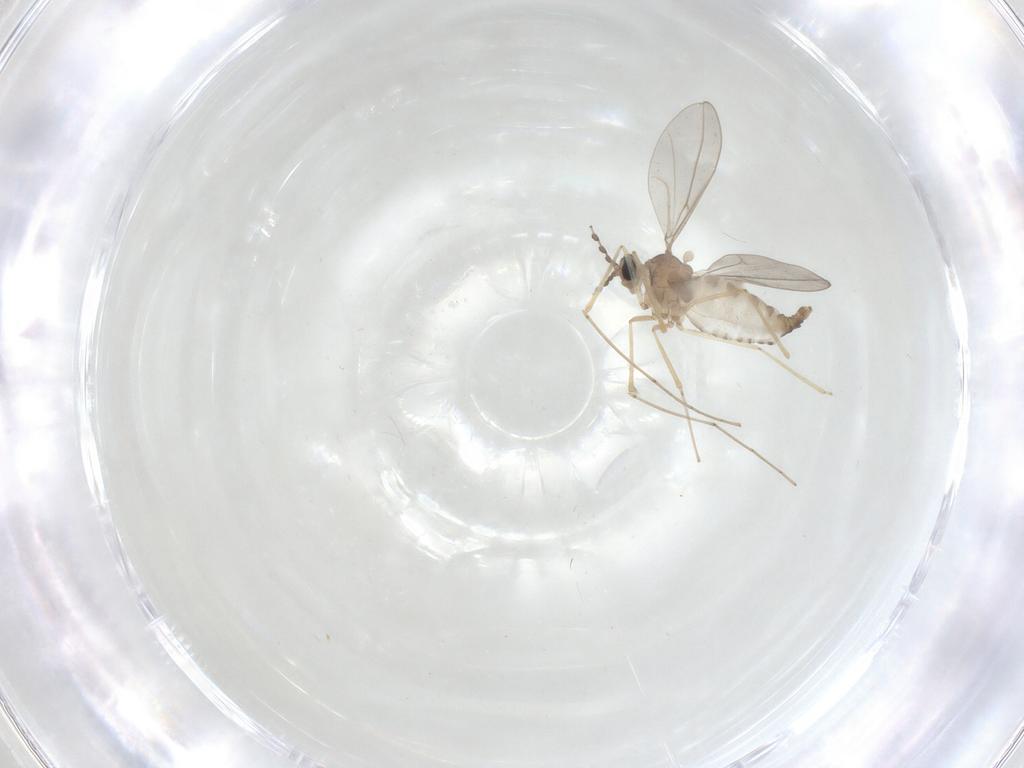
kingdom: Animalia
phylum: Arthropoda
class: Insecta
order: Diptera
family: Cecidomyiidae
